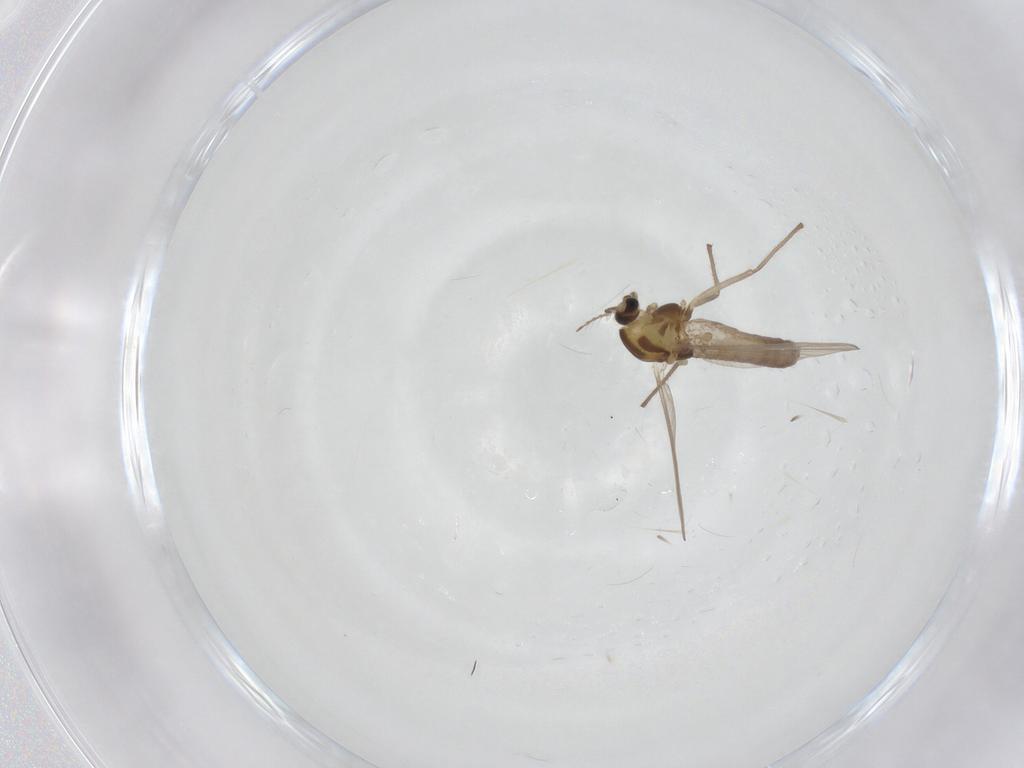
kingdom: Animalia
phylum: Arthropoda
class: Insecta
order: Diptera
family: Chironomidae
